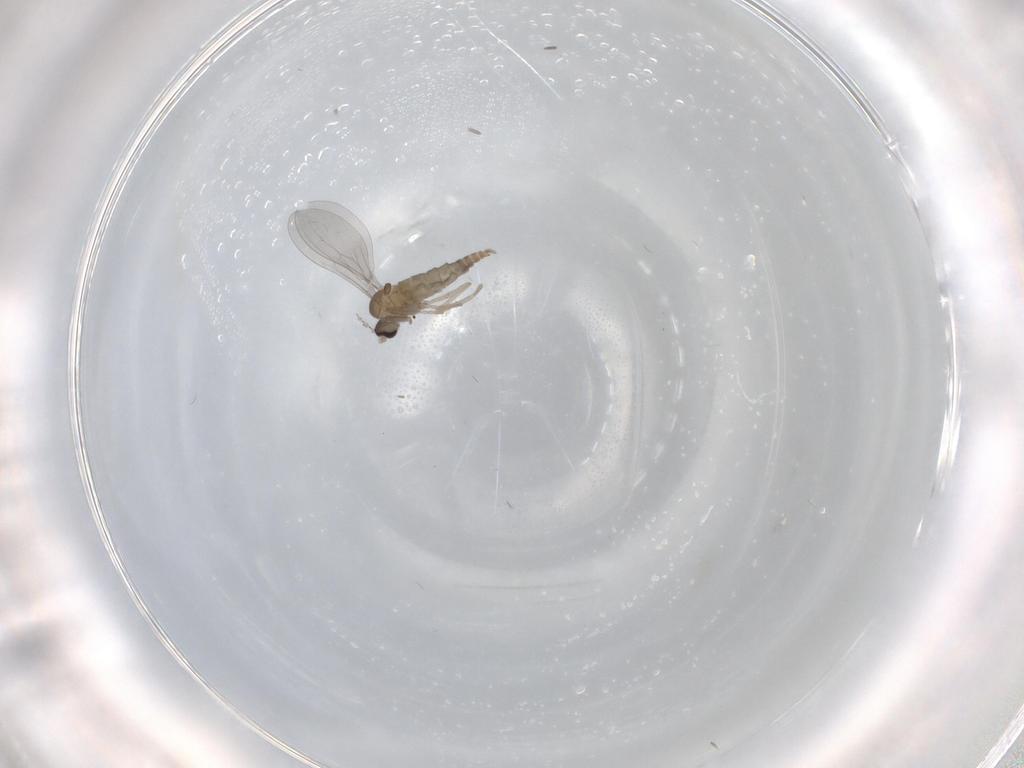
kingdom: Animalia
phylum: Arthropoda
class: Insecta
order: Diptera
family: Cecidomyiidae
